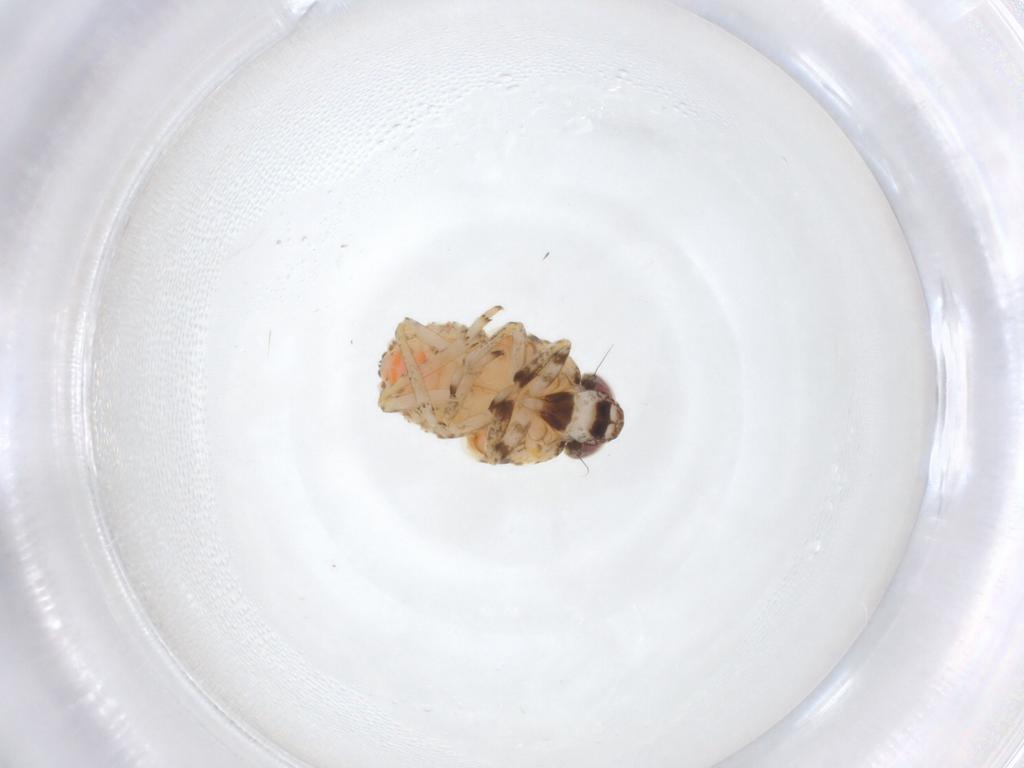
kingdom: Animalia
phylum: Arthropoda
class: Insecta
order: Hemiptera
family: Issidae
